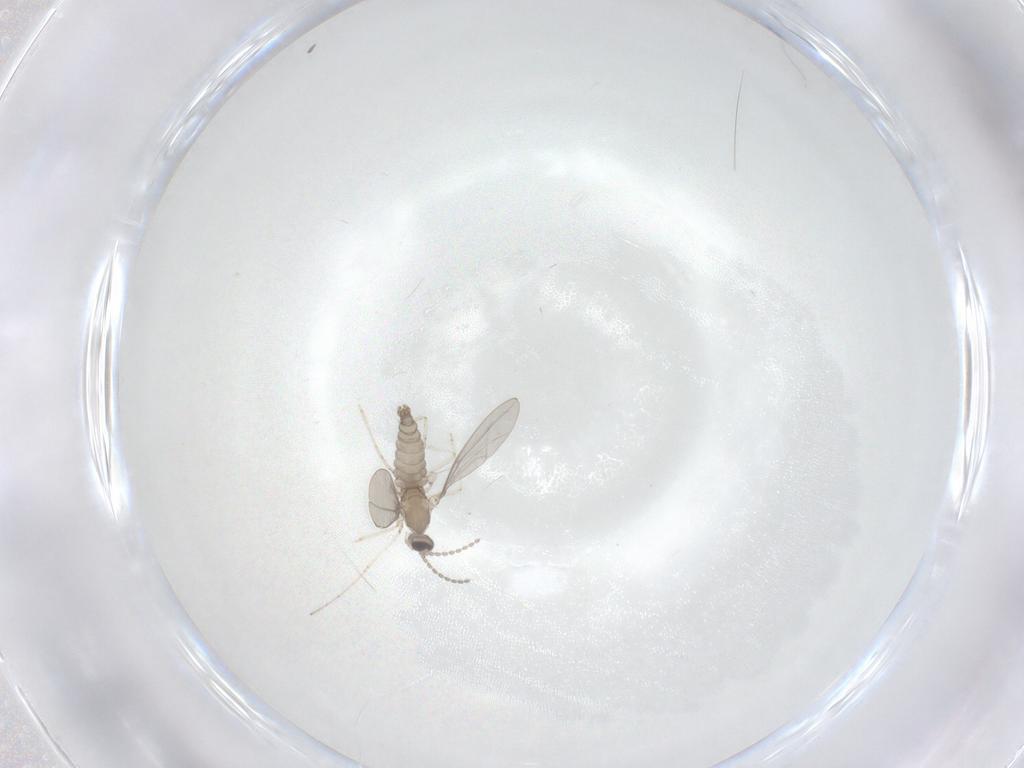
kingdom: Animalia
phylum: Arthropoda
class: Insecta
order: Diptera
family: Cecidomyiidae
